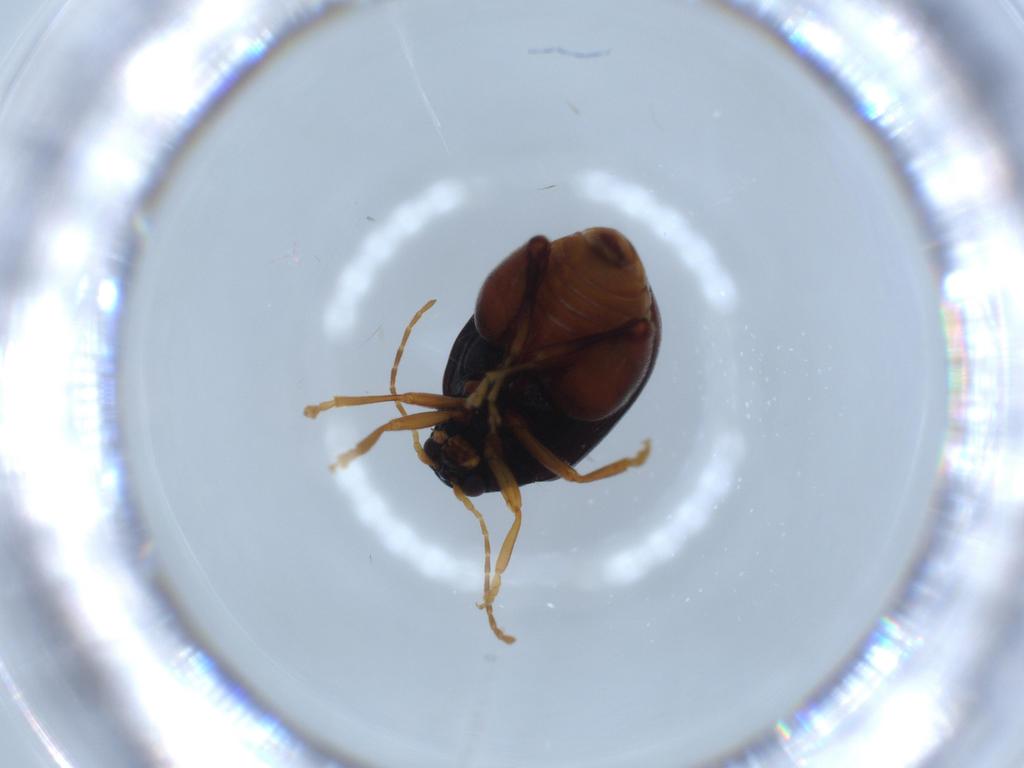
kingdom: Animalia
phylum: Arthropoda
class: Insecta
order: Coleoptera
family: Chrysomelidae
